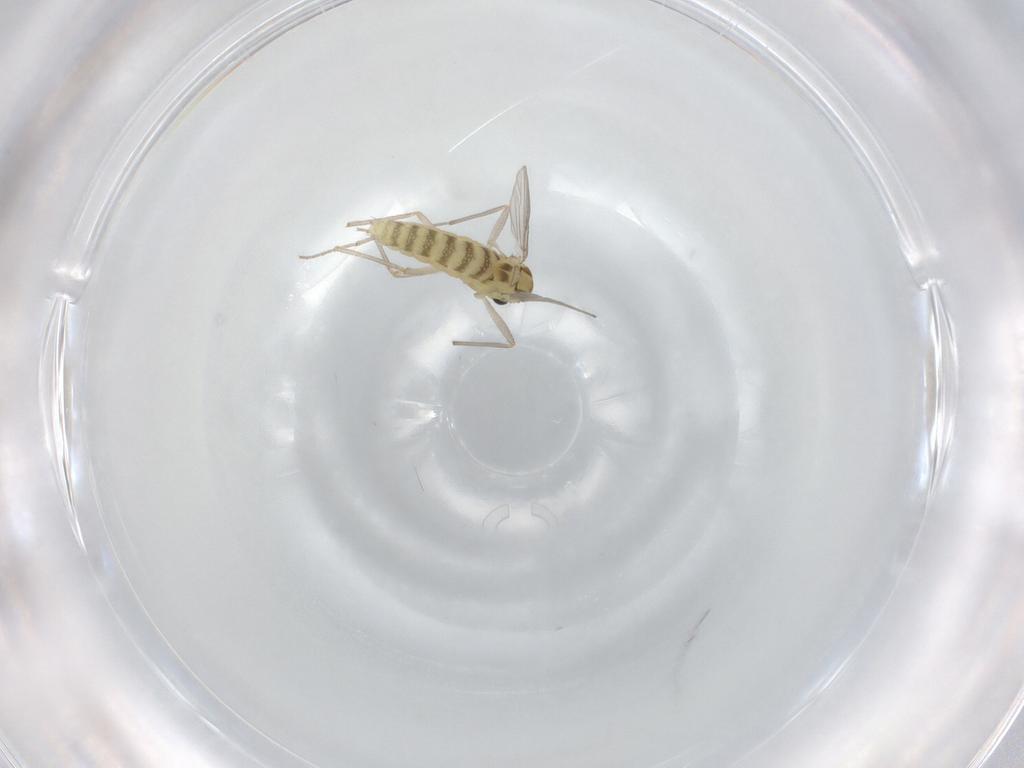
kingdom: Animalia
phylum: Arthropoda
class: Insecta
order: Diptera
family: Chironomidae
